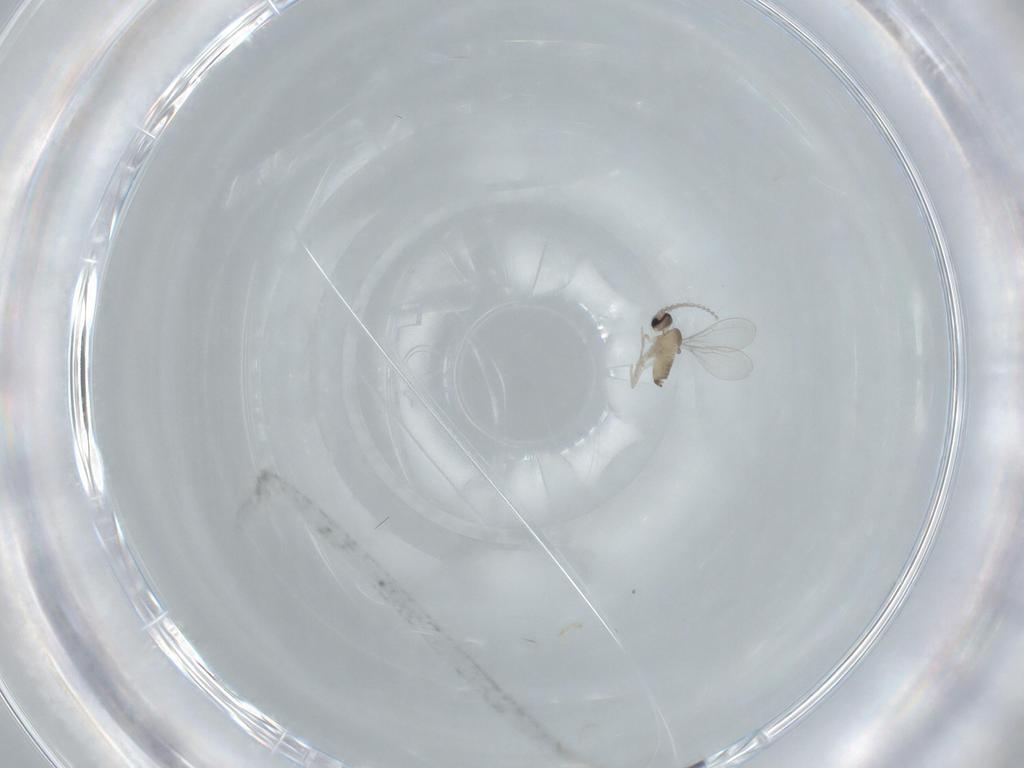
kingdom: Animalia
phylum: Arthropoda
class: Insecta
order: Diptera
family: Cecidomyiidae
